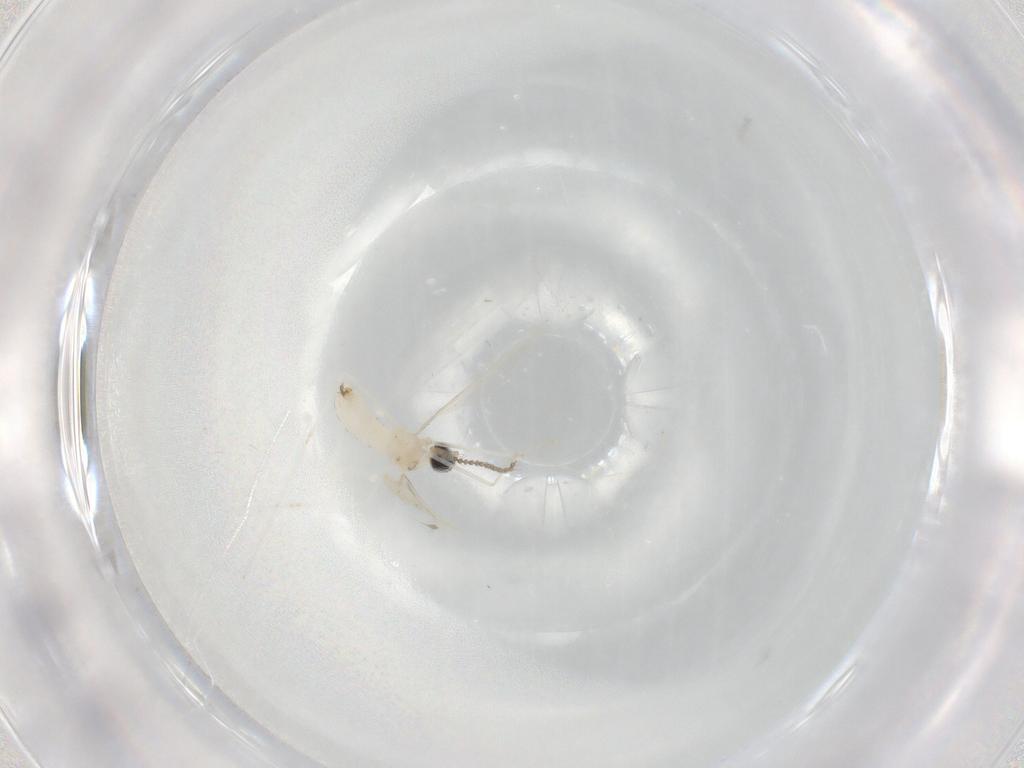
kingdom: Animalia
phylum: Arthropoda
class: Insecta
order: Diptera
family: Cecidomyiidae
